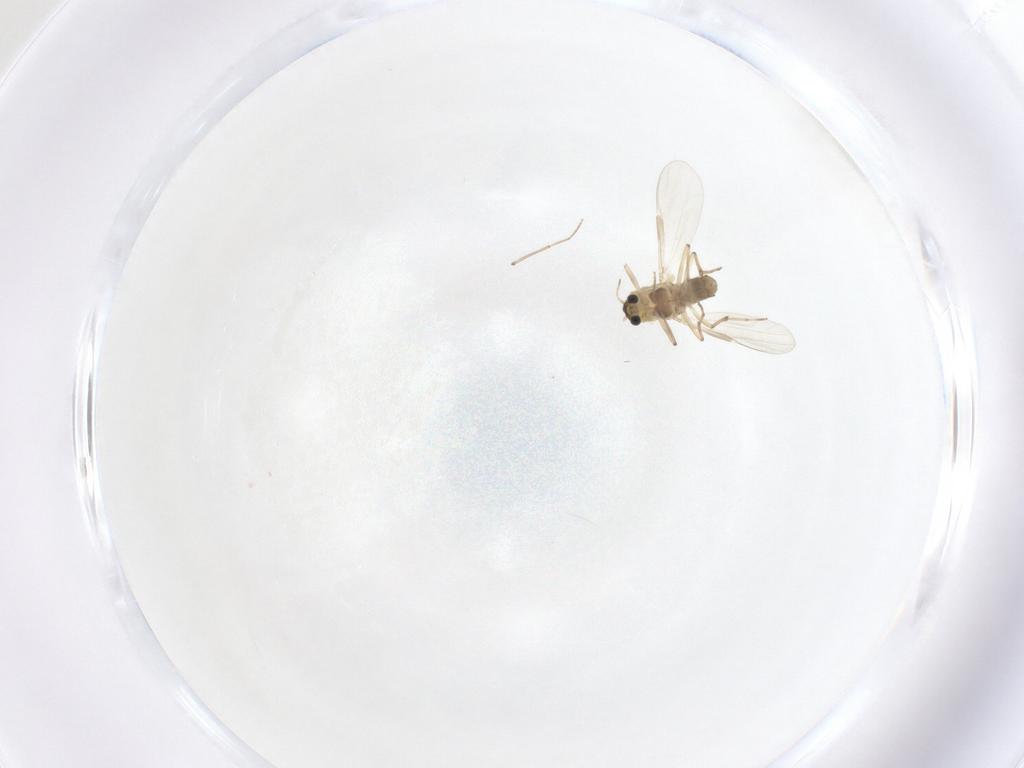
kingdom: Animalia
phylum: Arthropoda
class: Insecta
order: Diptera
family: Chironomidae
